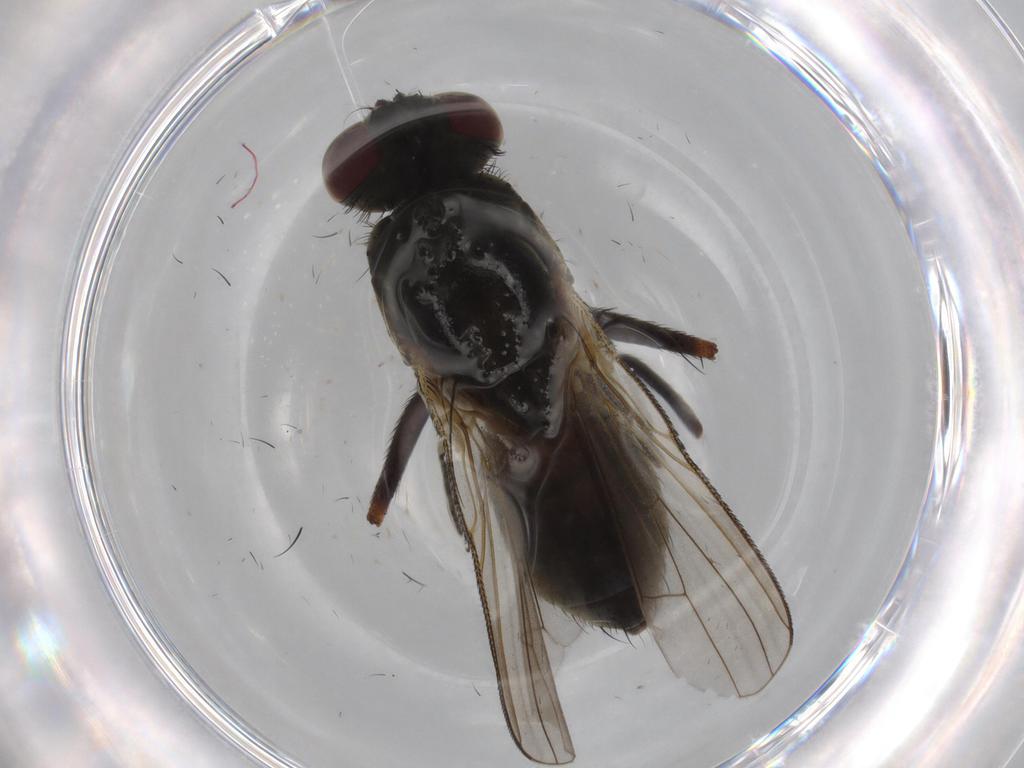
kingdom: Animalia
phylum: Arthropoda
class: Insecta
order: Diptera
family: Muscidae
